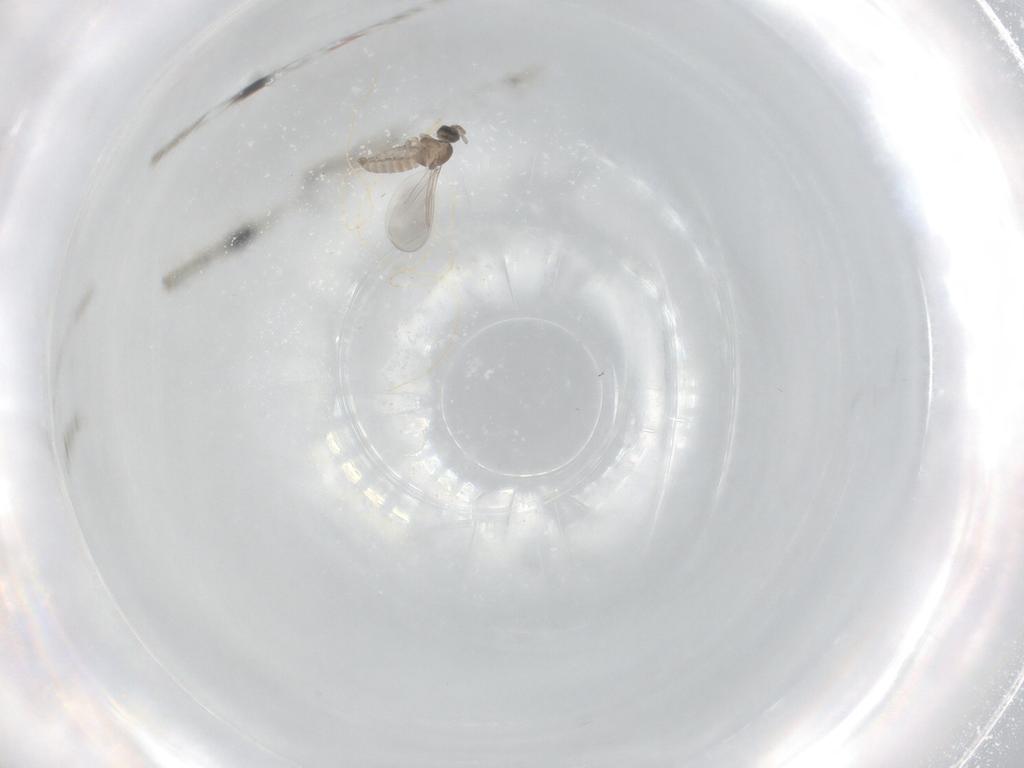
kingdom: Animalia
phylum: Arthropoda
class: Insecta
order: Diptera
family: Cecidomyiidae
